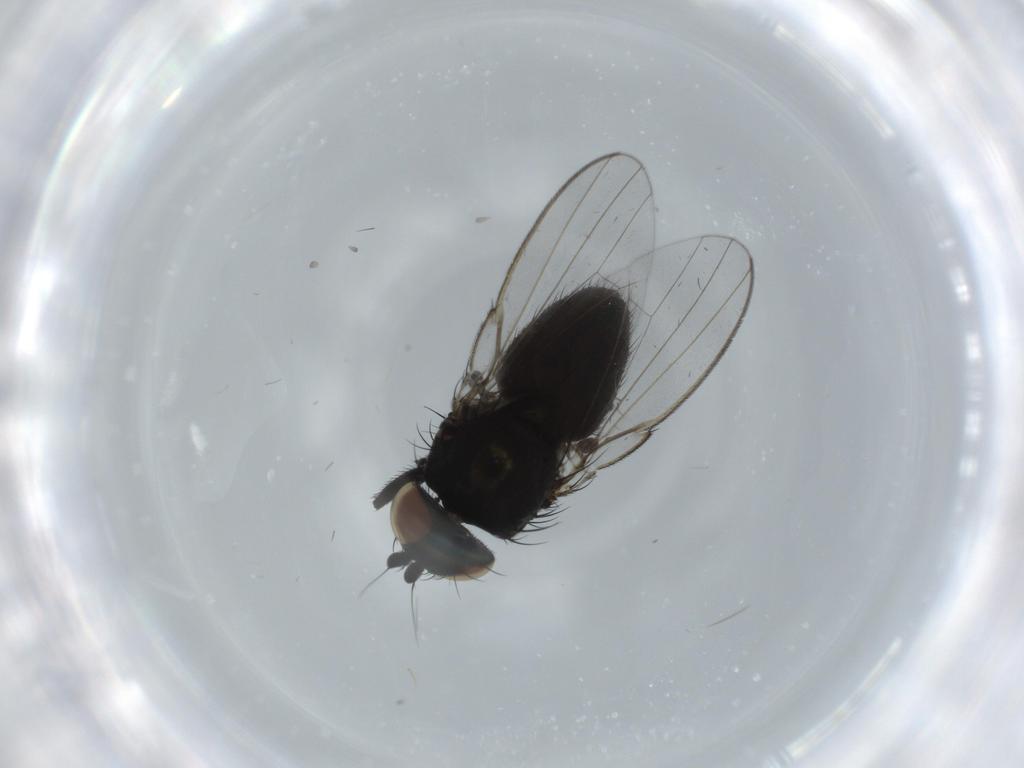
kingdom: Animalia
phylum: Arthropoda
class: Insecta
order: Diptera
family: Milichiidae
